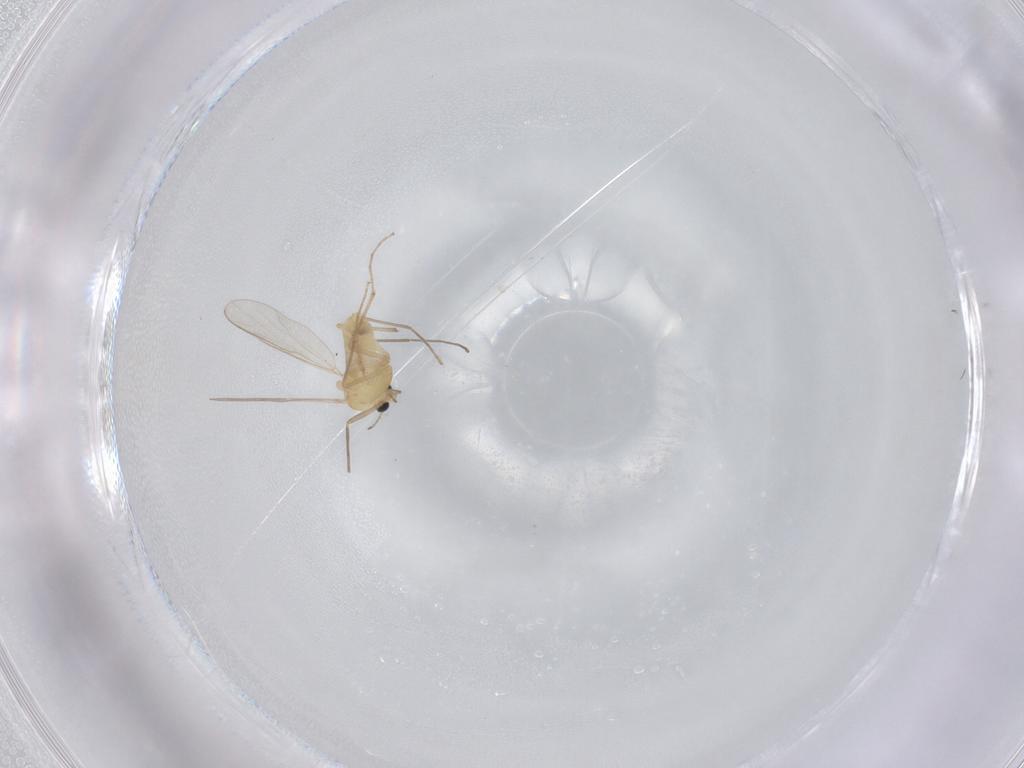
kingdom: Animalia
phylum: Arthropoda
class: Insecta
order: Diptera
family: Chironomidae
